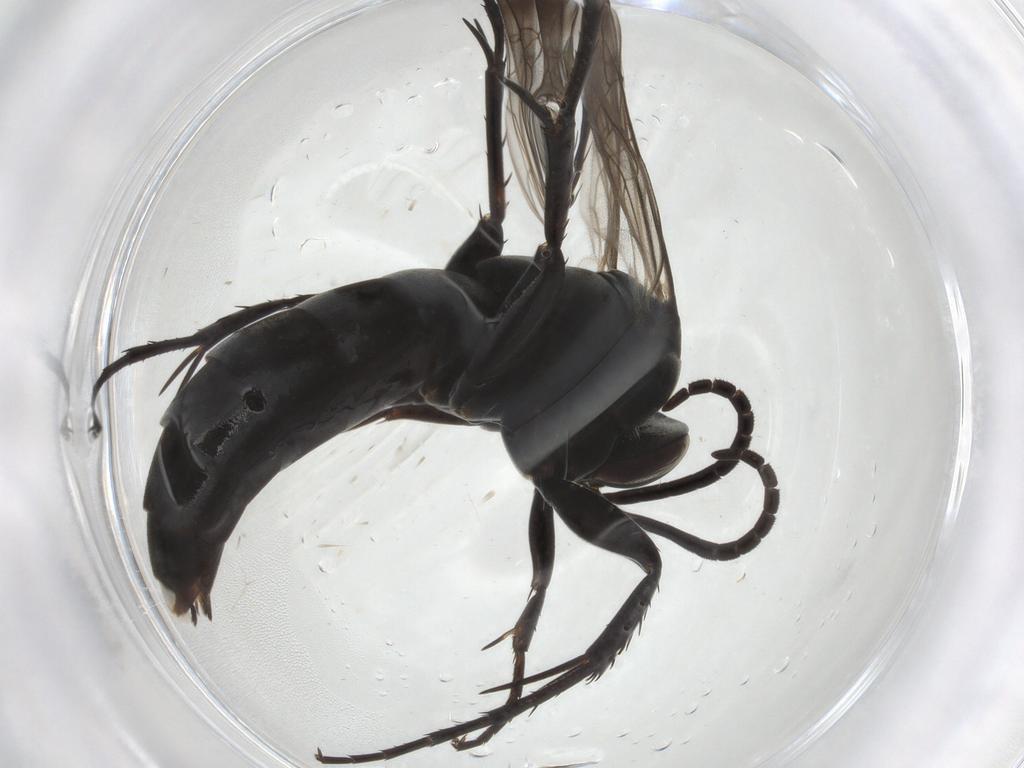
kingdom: Animalia
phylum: Arthropoda
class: Insecta
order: Hymenoptera
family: Pompilidae
